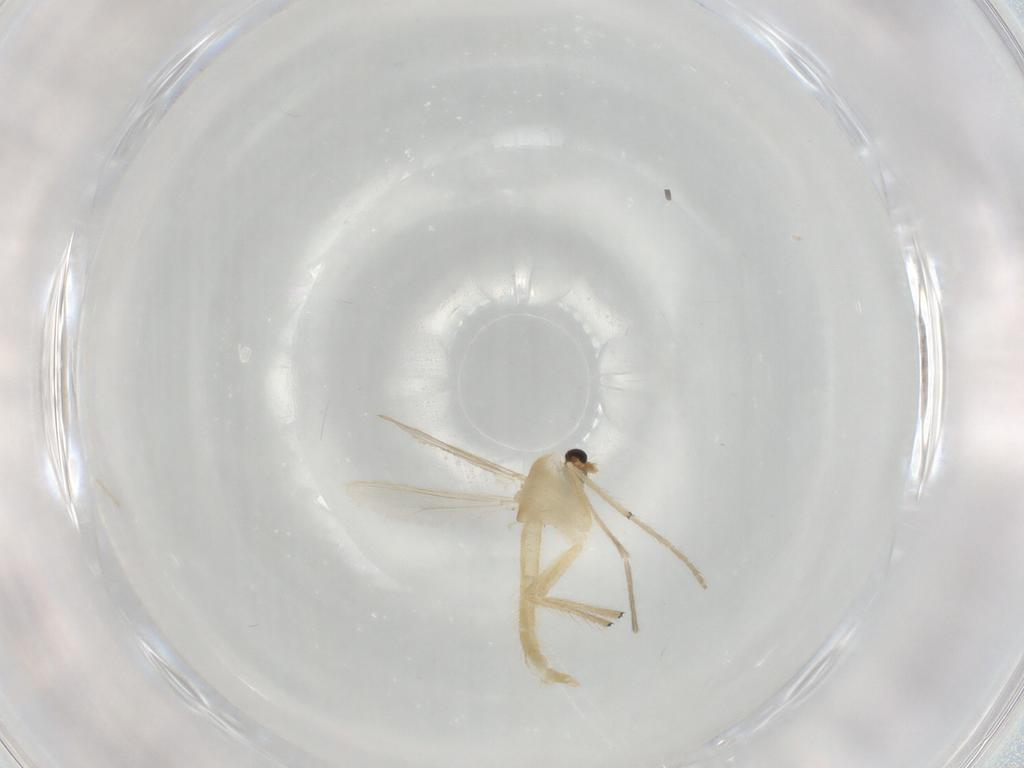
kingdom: Animalia
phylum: Arthropoda
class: Insecta
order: Diptera
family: Chironomidae
